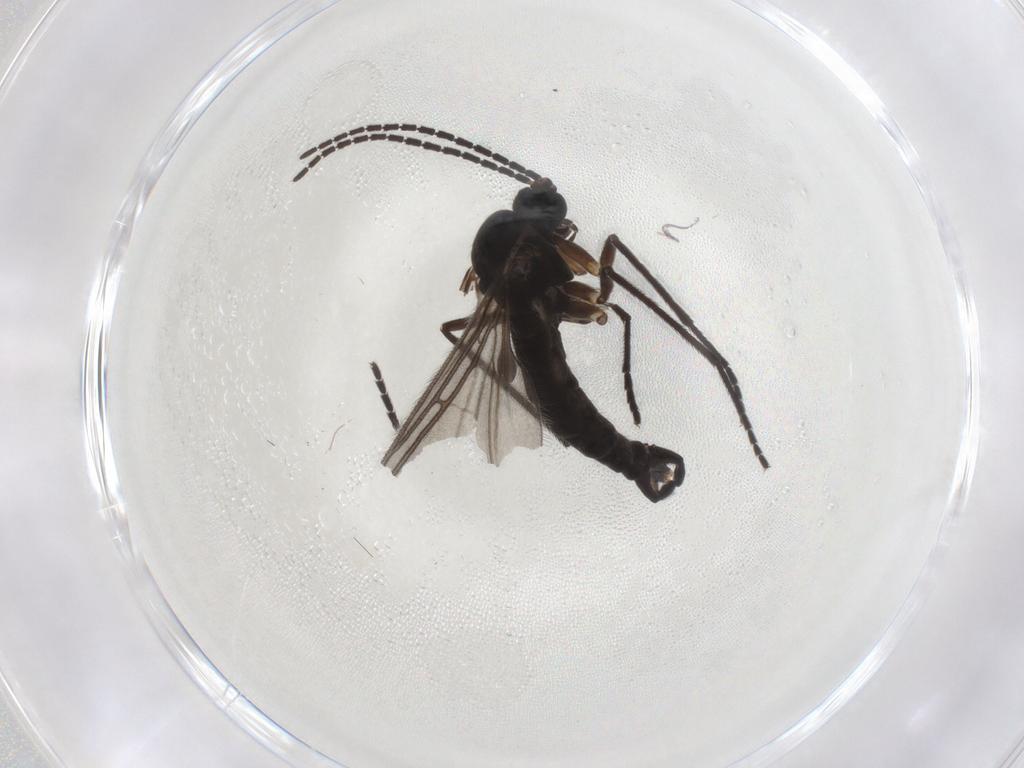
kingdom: Animalia
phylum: Arthropoda
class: Insecta
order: Diptera
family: Sciaridae
